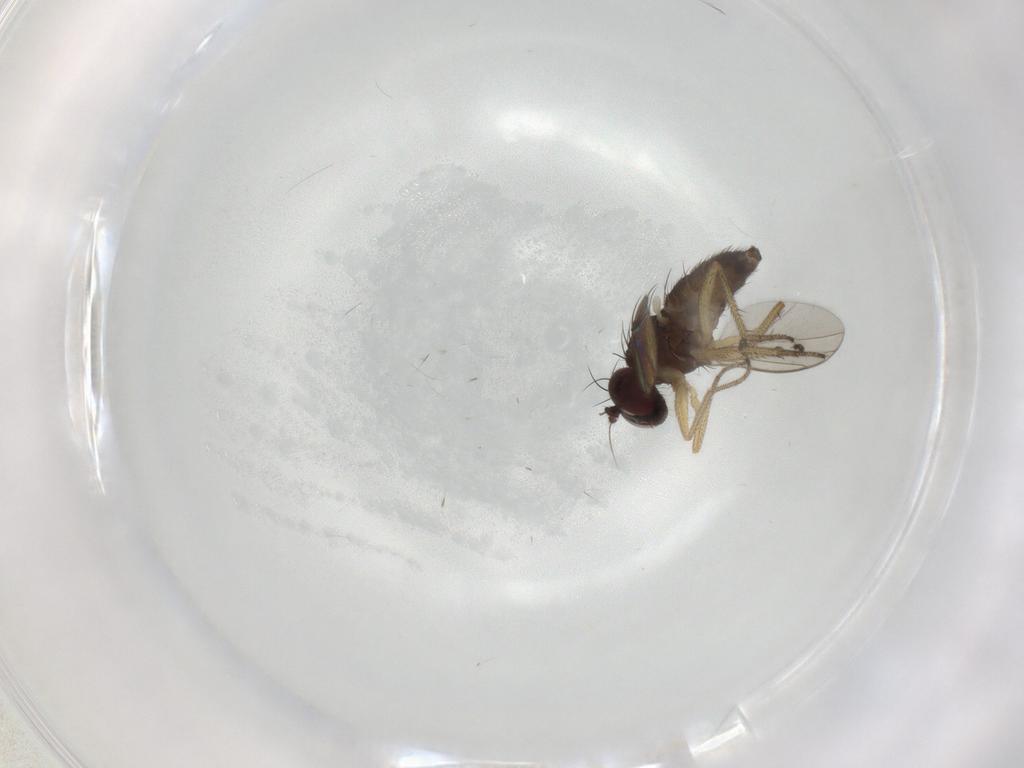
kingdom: Animalia
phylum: Arthropoda
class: Insecta
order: Diptera
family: Dolichopodidae
